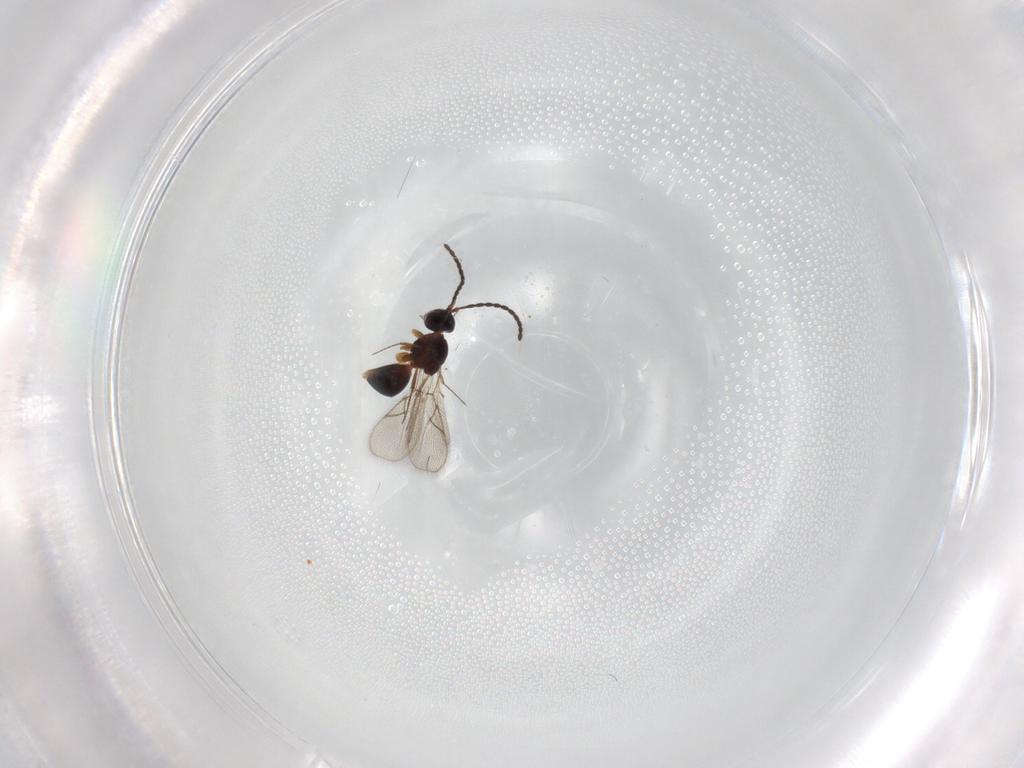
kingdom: Animalia
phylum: Arthropoda
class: Insecta
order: Hymenoptera
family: Figitidae
